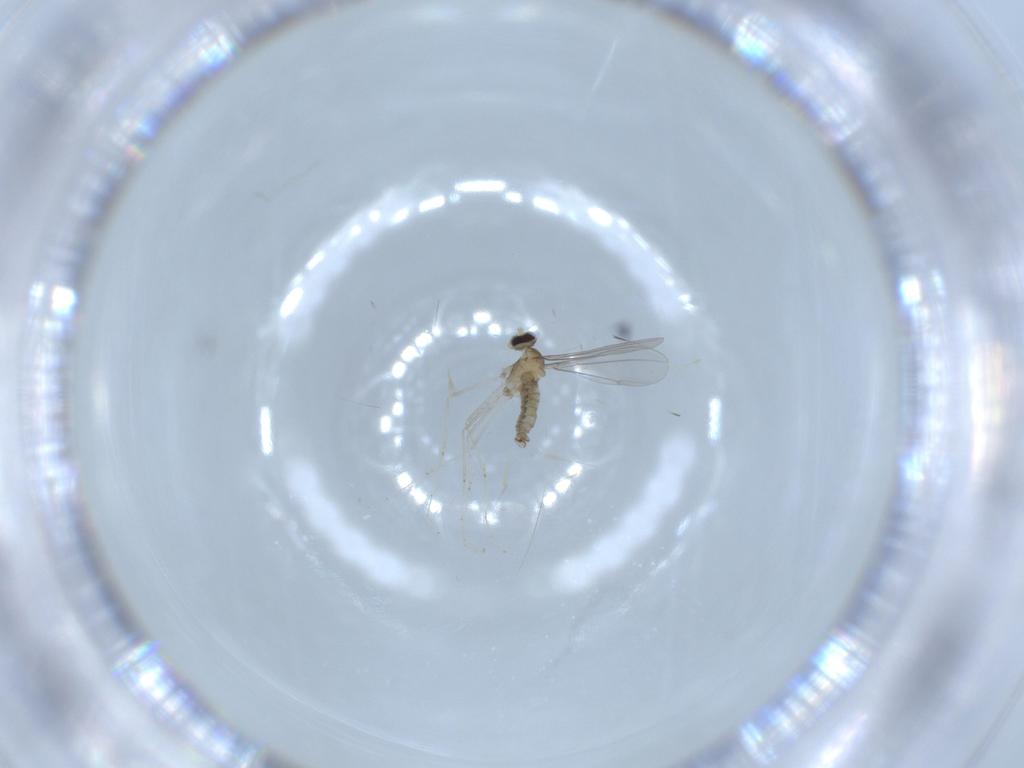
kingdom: Animalia
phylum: Arthropoda
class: Insecta
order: Diptera
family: Cecidomyiidae
